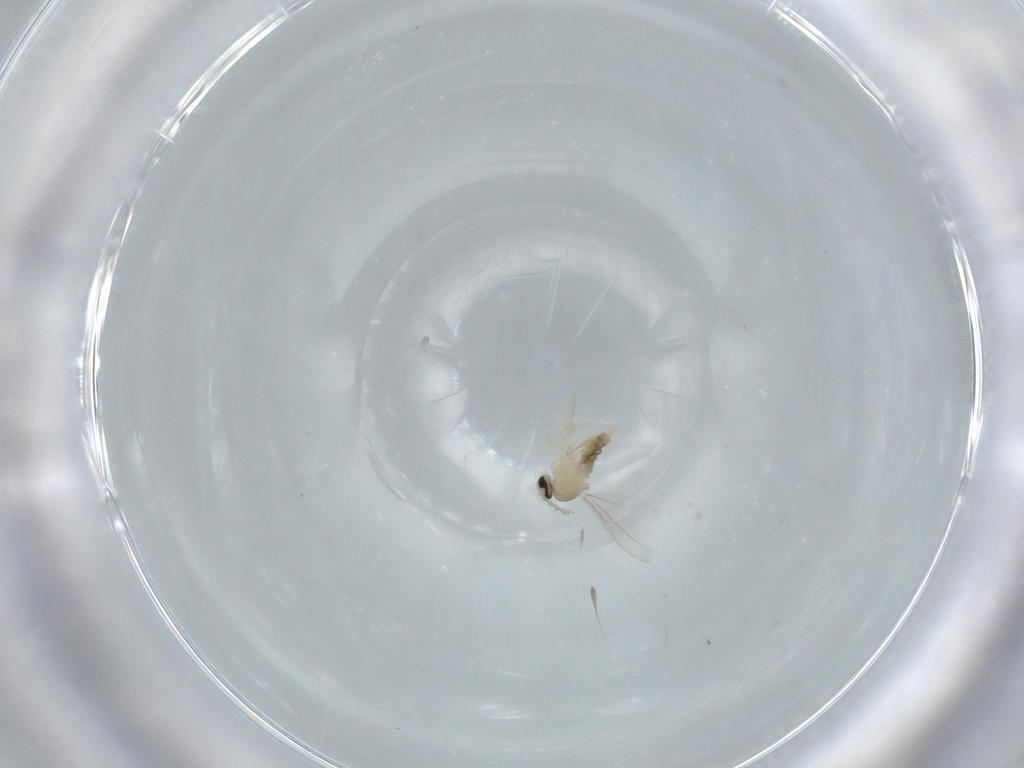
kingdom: Animalia
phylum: Arthropoda
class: Insecta
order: Diptera
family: Cecidomyiidae
